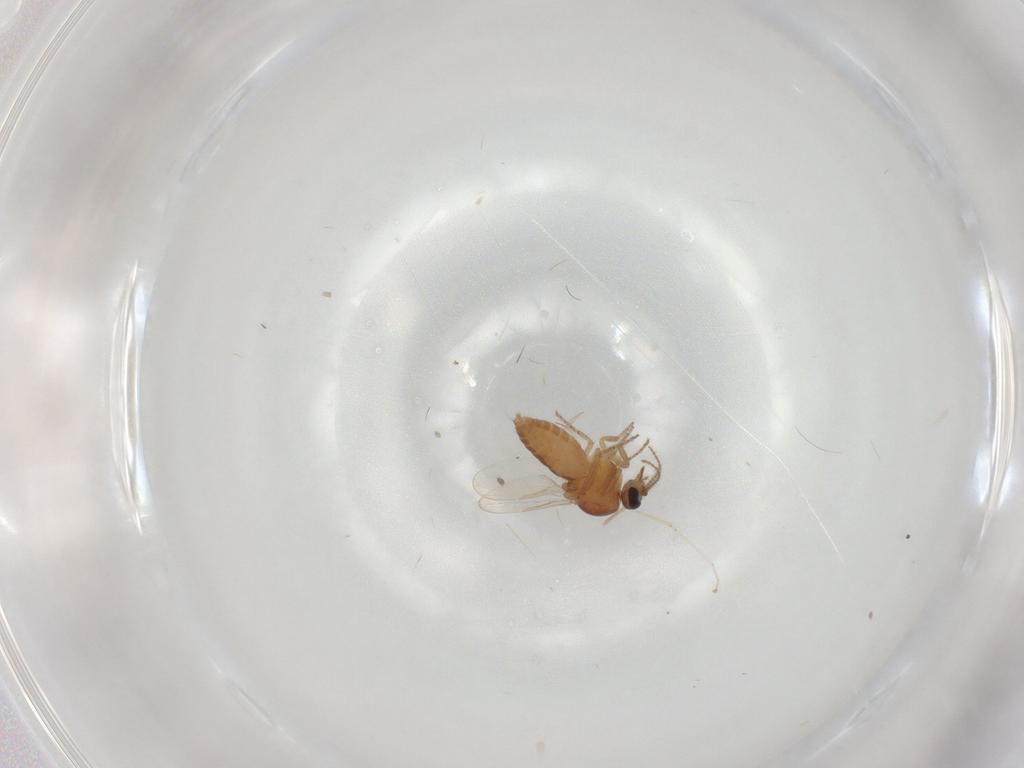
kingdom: Animalia
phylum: Arthropoda
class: Insecta
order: Diptera
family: Ceratopogonidae
